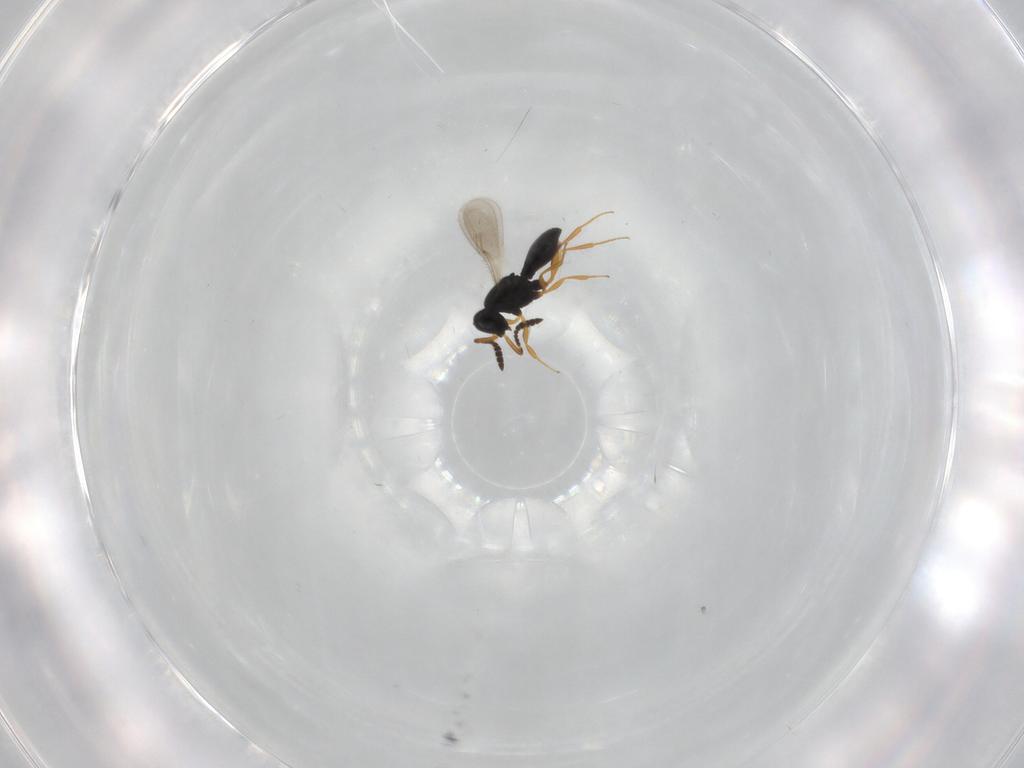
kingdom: Animalia
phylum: Arthropoda
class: Insecta
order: Hymenoptera
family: Scelionidae
